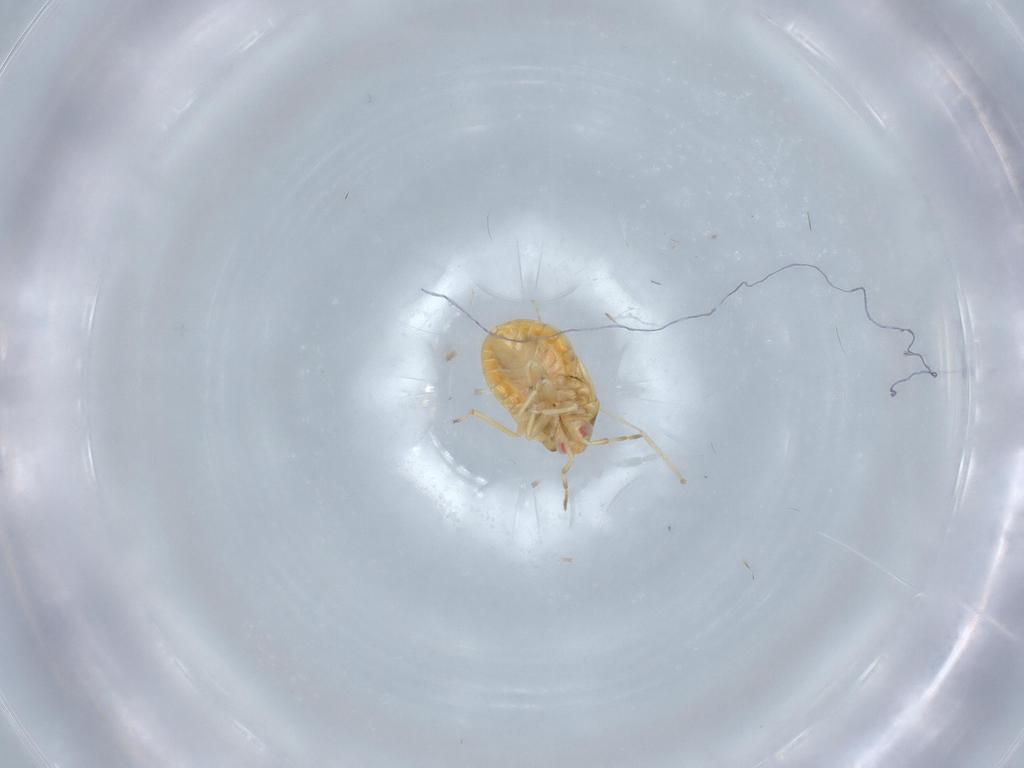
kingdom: Animalia
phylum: Arthropoda
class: Insecta
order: Hemiptera
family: Anthocoridae
